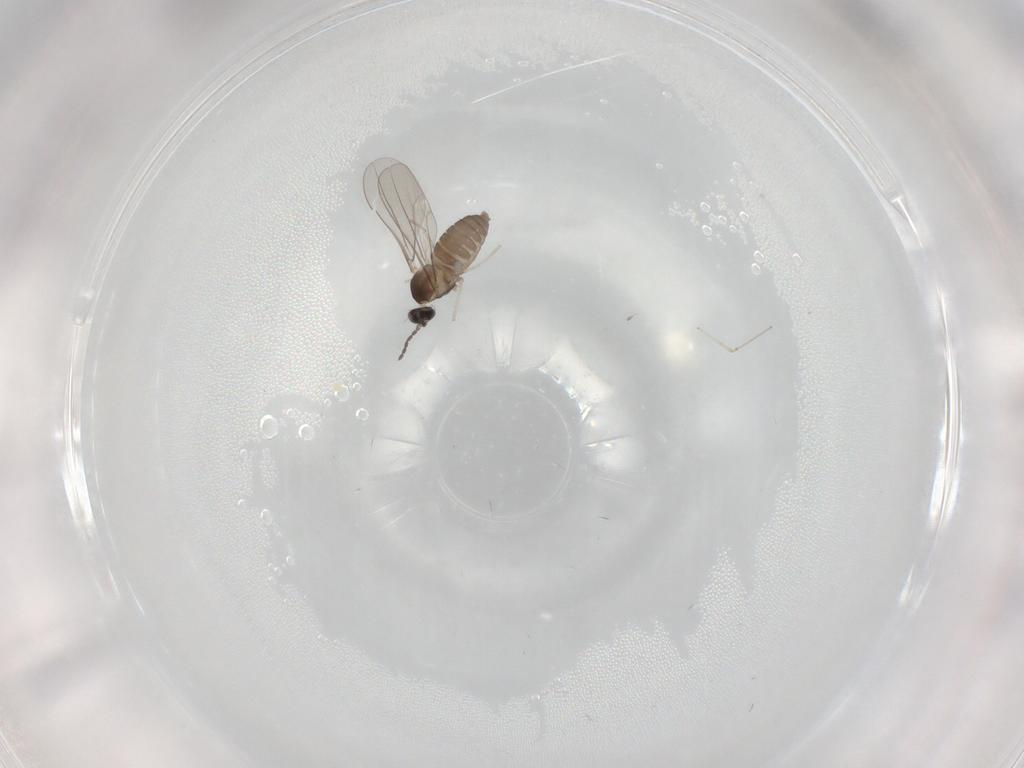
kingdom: Animalia
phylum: Arthropoda
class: Insecta
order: Diptera
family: Cecidomyiidae
